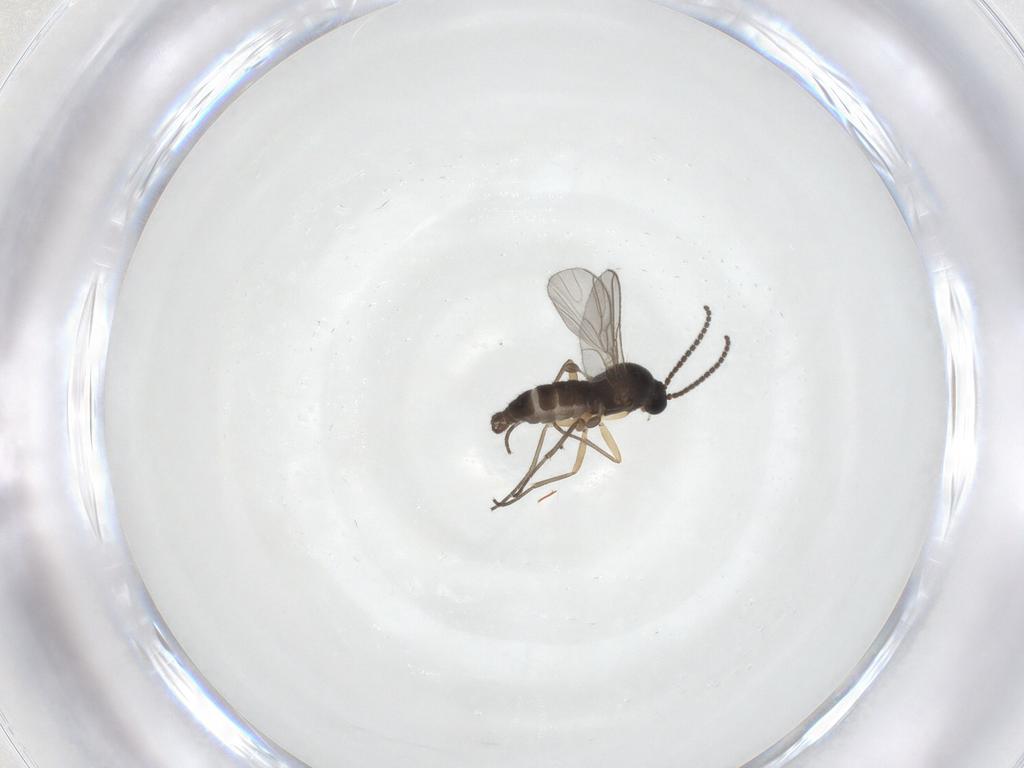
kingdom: Animalia
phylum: Arthropoda
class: Insecta
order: Diptera
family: Sciaridae
